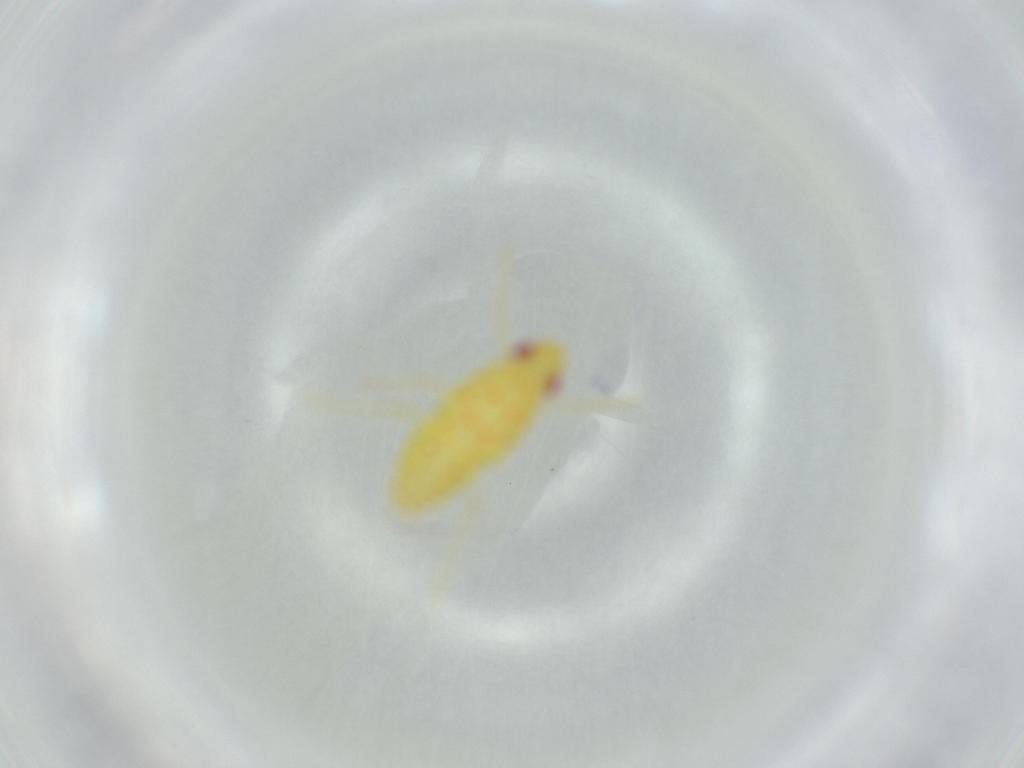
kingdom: Animalia
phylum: Arthropoda
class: Insecta
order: Hemiptera
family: Tropiduchidae
